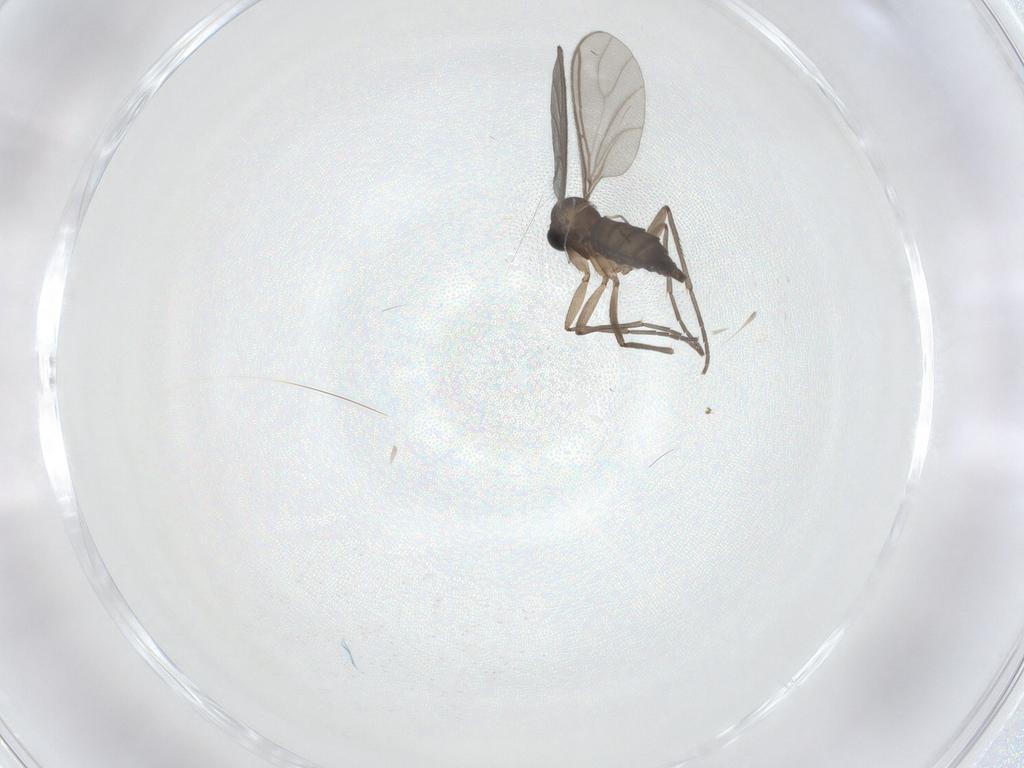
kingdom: Animalia
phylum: Arthropoda
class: Insecta
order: Diptera
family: Sciaridae
